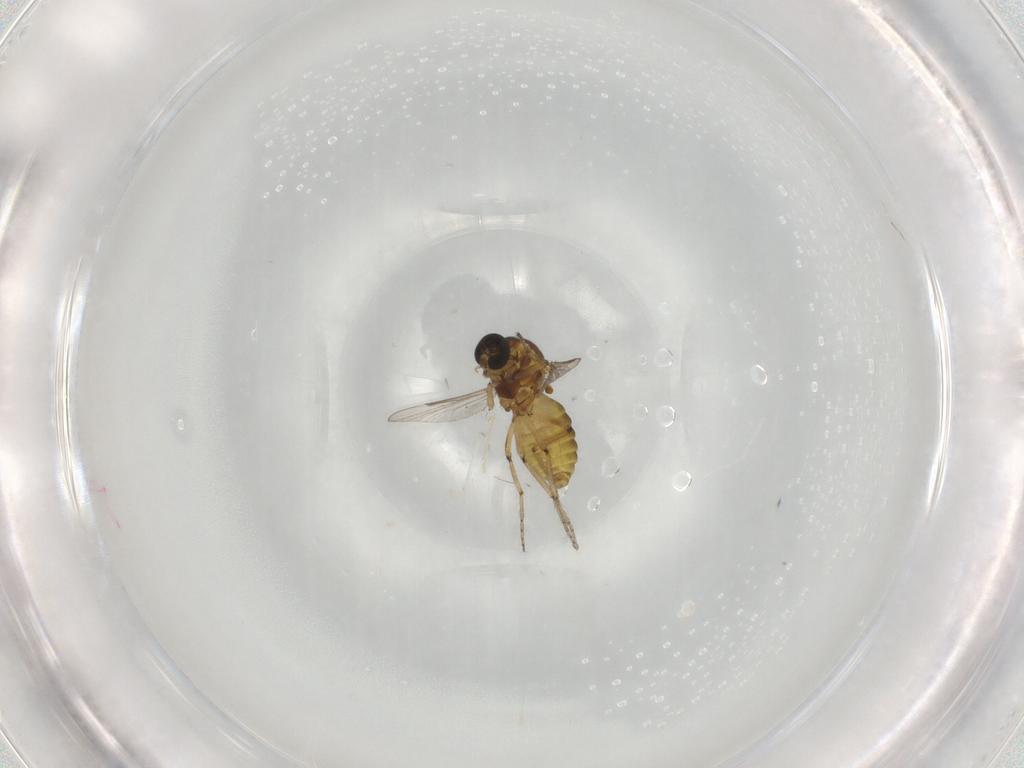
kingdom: Animalia
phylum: Arthropoda
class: Insecta
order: Diptera
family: Ceratopogonidae
